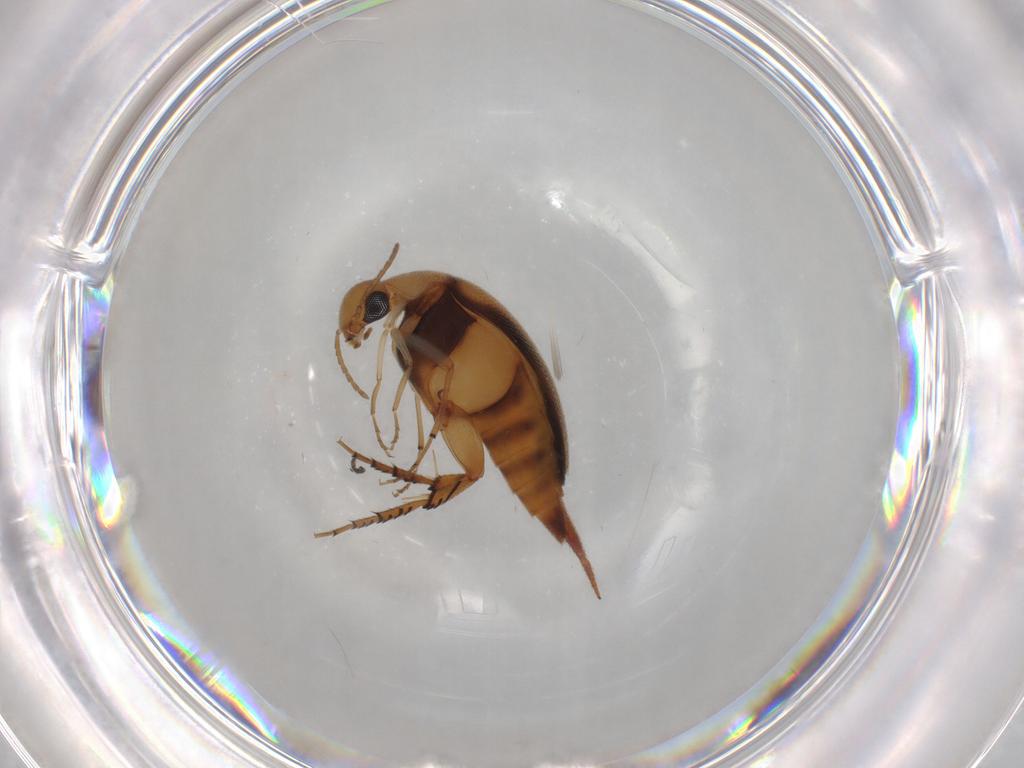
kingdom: Animalia
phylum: Arthropoda
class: Insecta
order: Coleoptera
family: Mordellidae
